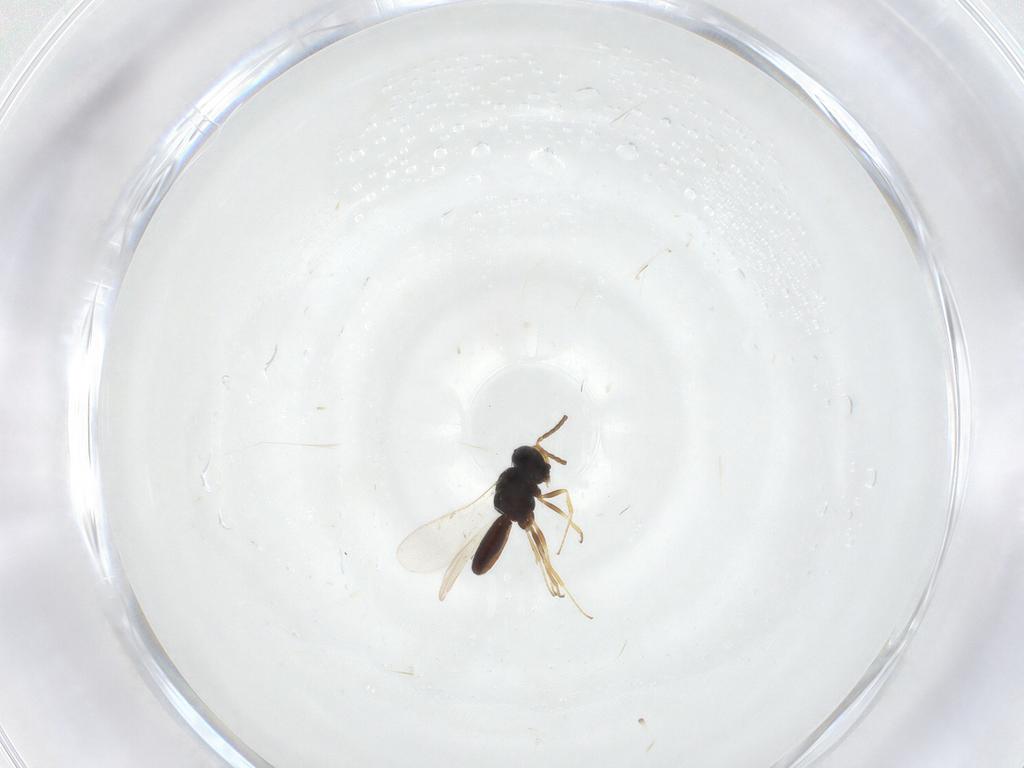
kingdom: Animalia
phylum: Arthropoda
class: Insecta
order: Hymenoptera
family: Scelionidae
